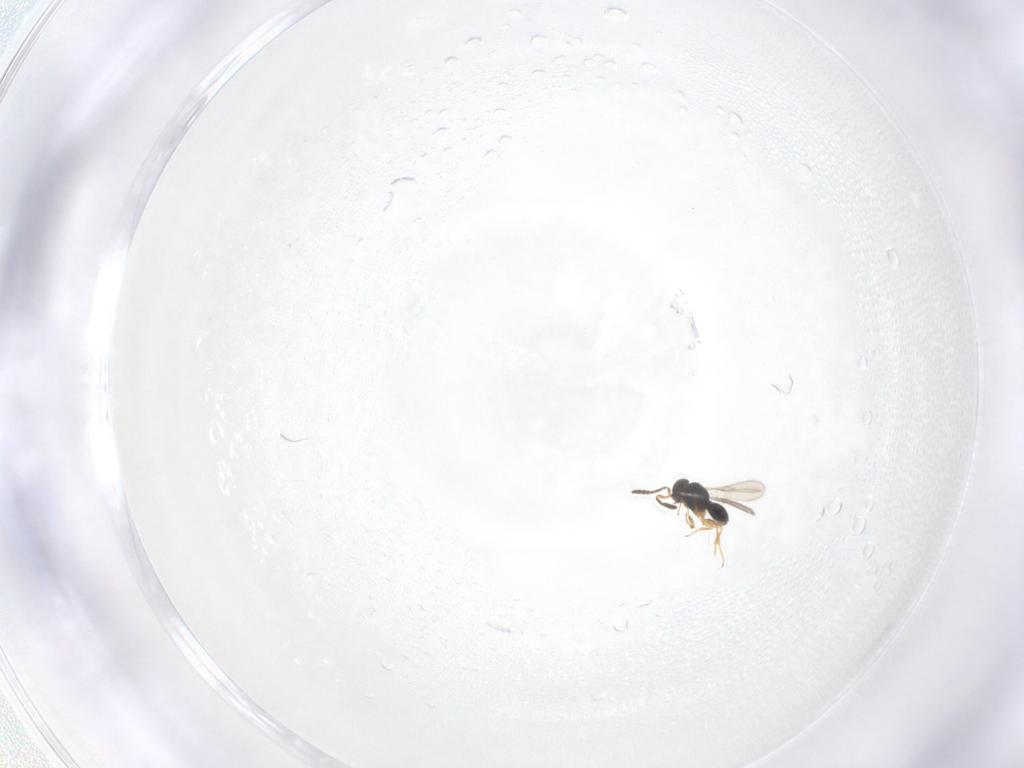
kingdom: Animalia
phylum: Arthropoda
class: Insecta
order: Hymenoptera
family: Scelionidae
